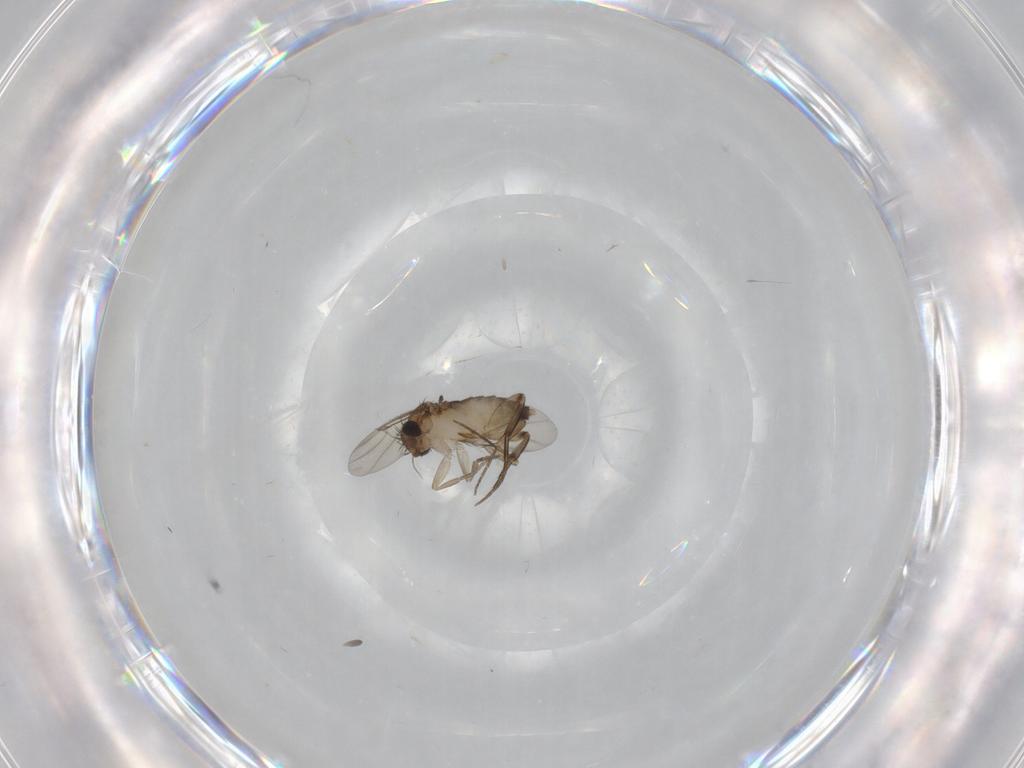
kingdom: Animalia
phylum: Arthropoda
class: Insecta
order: Diptera
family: Phoridae
